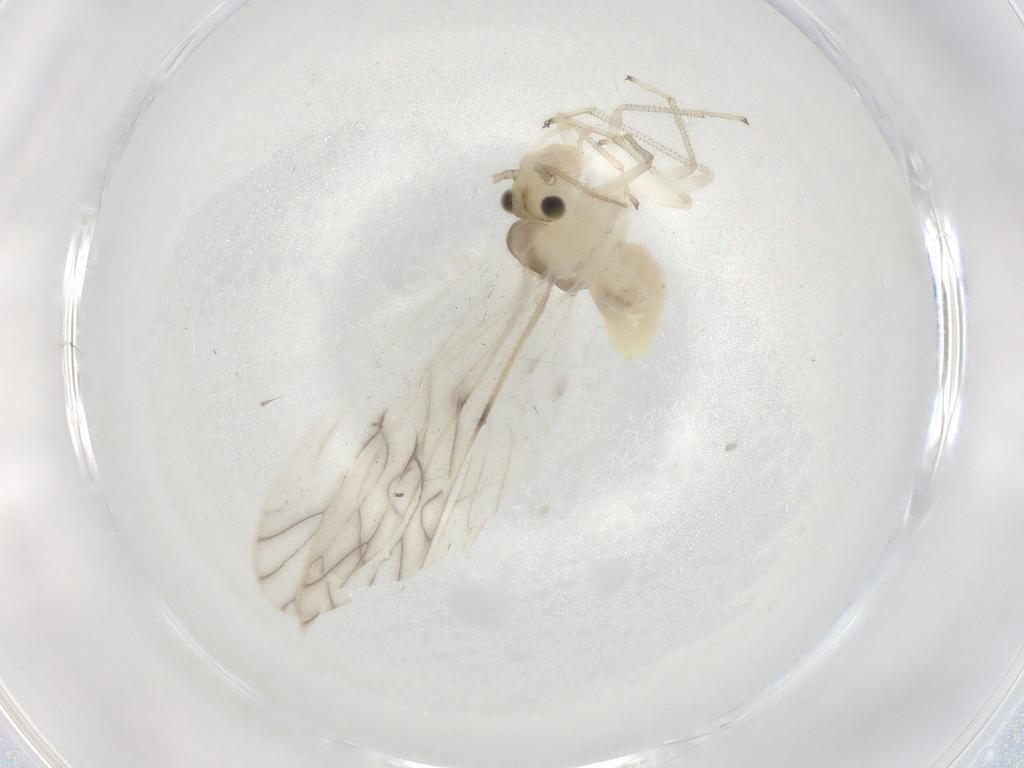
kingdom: Animalia
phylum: Arthropoda
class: Insecta
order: Psocodea
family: Caeciliusidae
